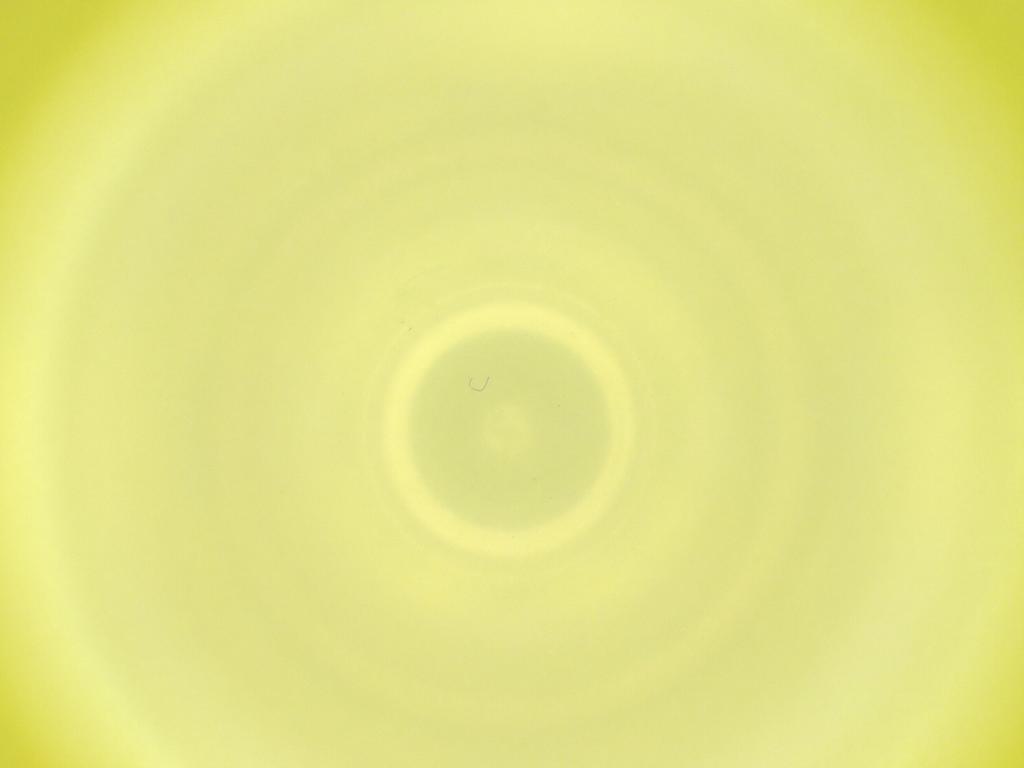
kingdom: Animalia
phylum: Arthropoda
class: Insecta
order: Diptera
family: Cecidomyiidae
